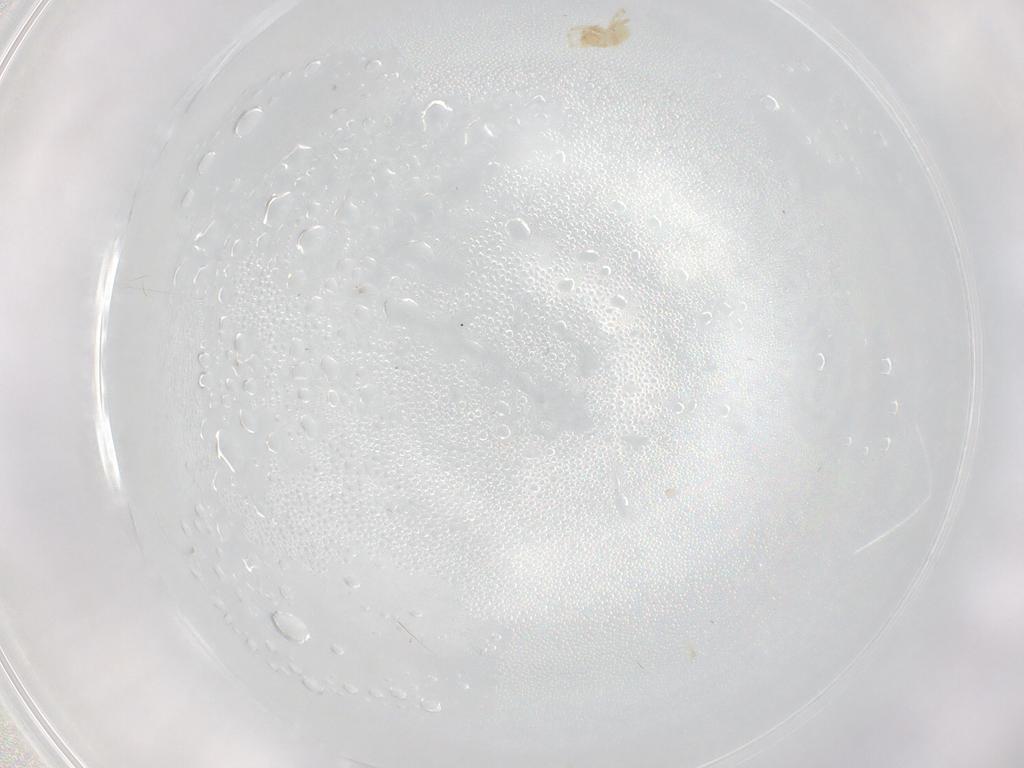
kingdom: Animalia
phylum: Arthropoda
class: Arachnida
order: Trombidiformes
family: Erythraeidae
